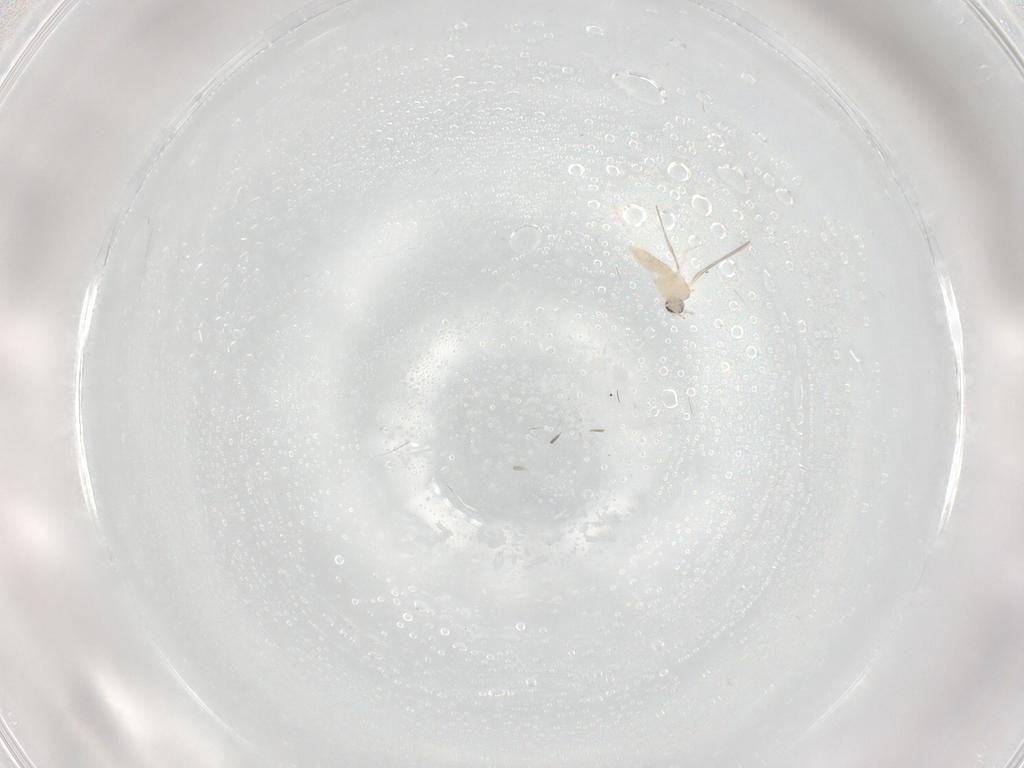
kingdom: Animalia
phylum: Arthropoda
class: Insecta
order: Diptera
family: Cecidomyiidae
